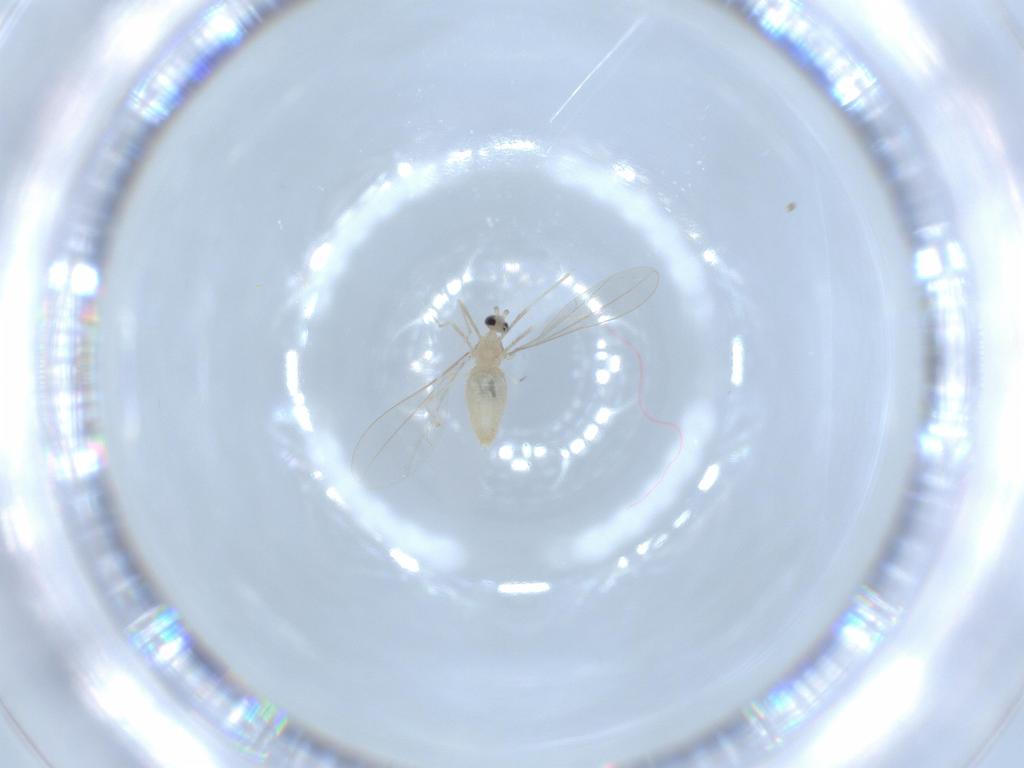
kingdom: Animalia
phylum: Arthropoda
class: Insecta
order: Diptera
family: Cecidomyiidae
